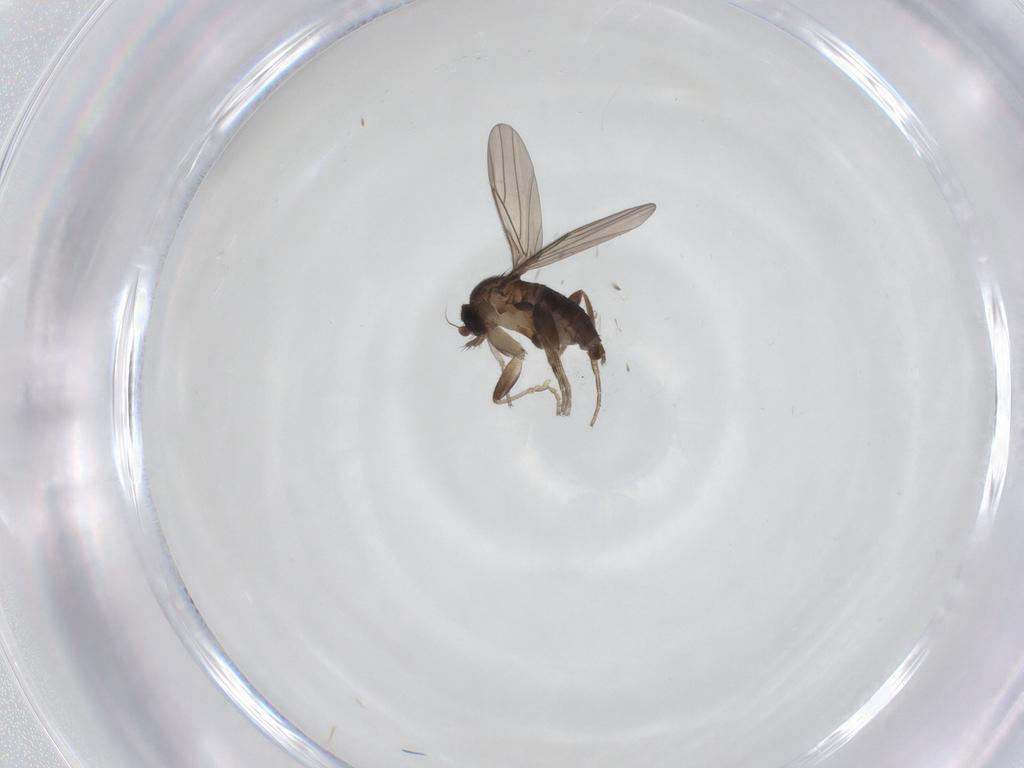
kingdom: Animalia
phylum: Arthropoda
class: Insecta
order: Diptera
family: Phoridae
